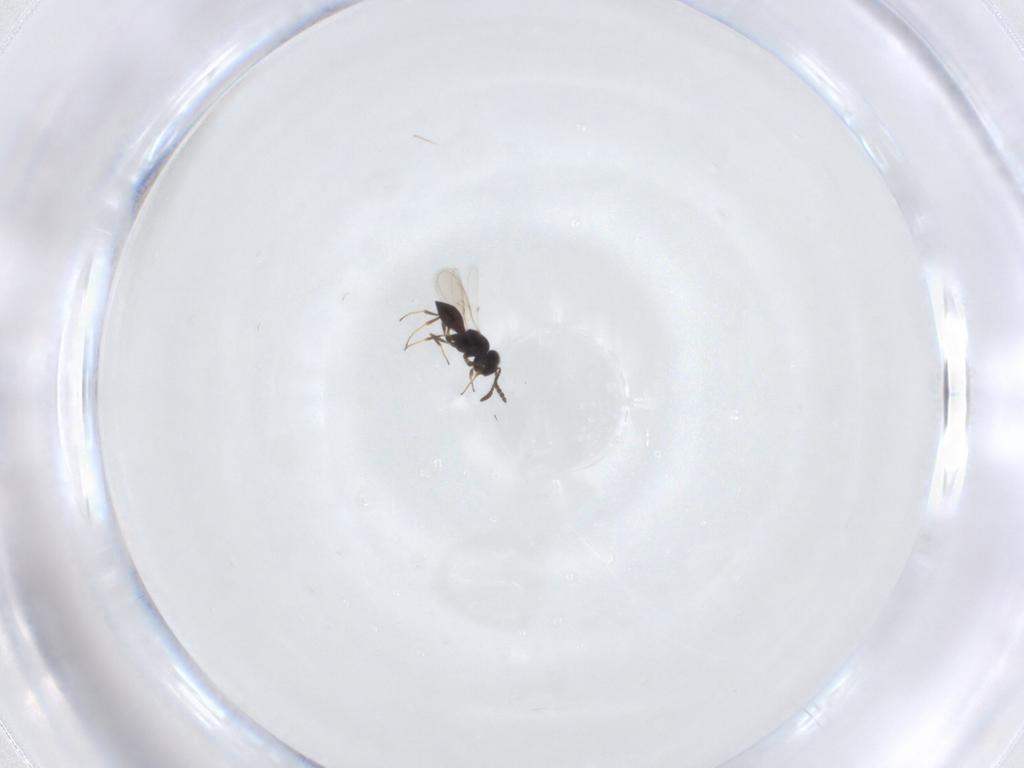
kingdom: Animalia
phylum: Arthropoda
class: Insecta
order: Hymenoptera
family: Scelionidae
